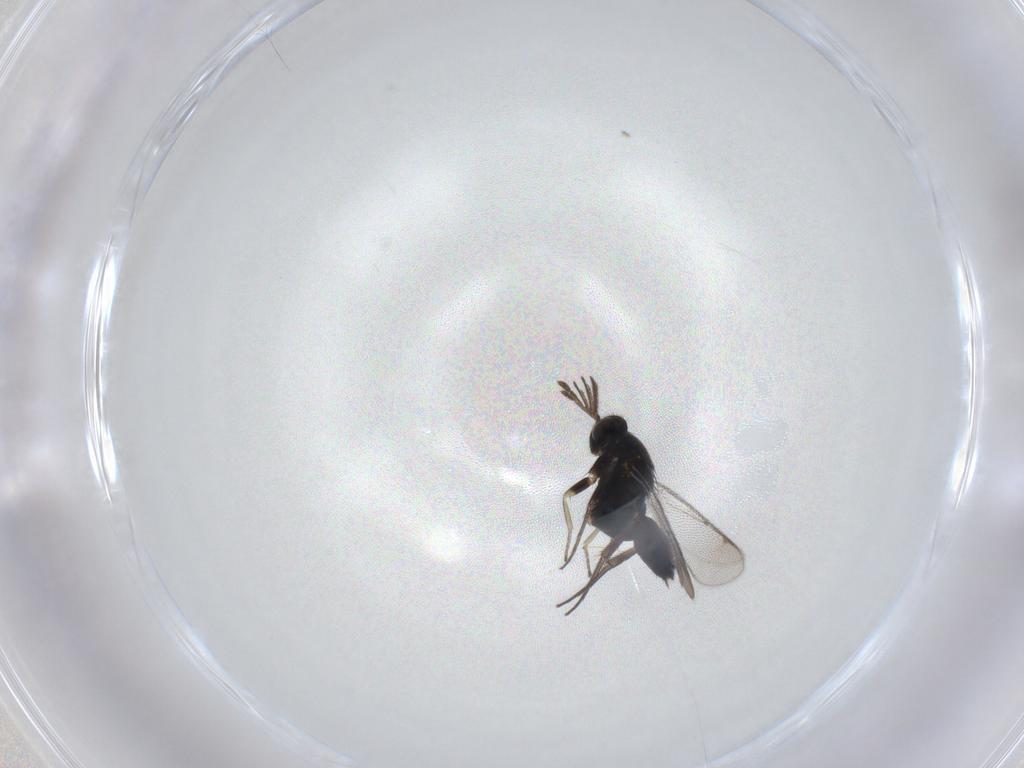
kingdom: Animalia
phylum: Arthropoda
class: Insecta
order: Hymenoptera
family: Eulophidae
